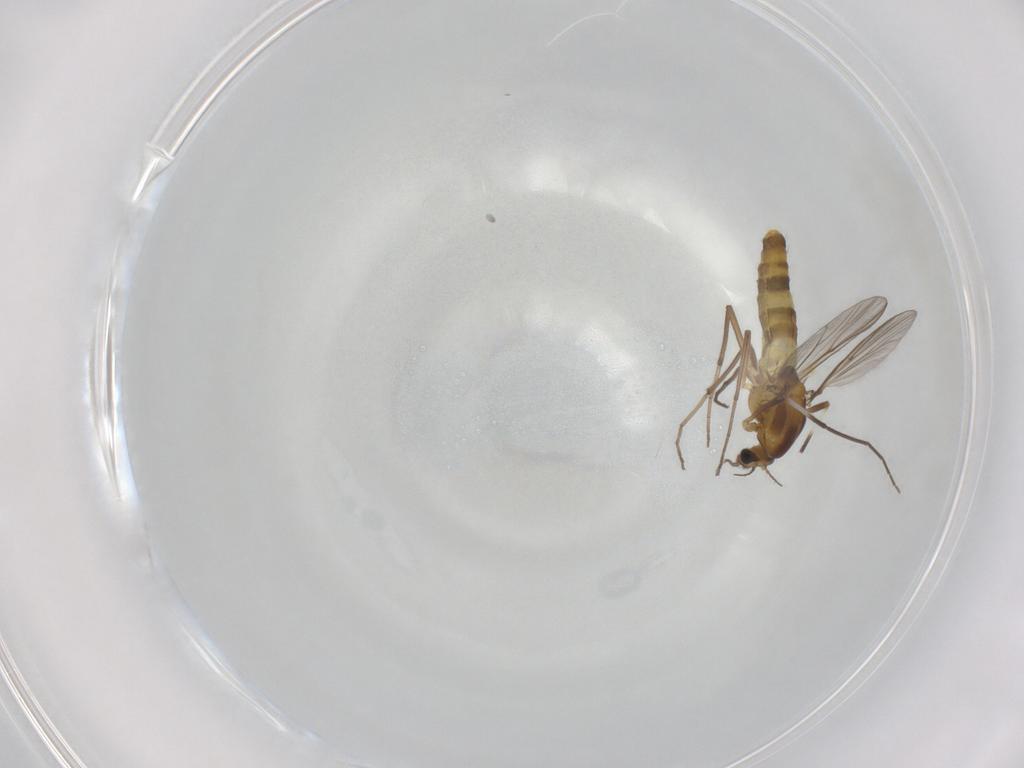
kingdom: Animalia
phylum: Arthropoda
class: Insecta
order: Diptera
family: Chironomidae
